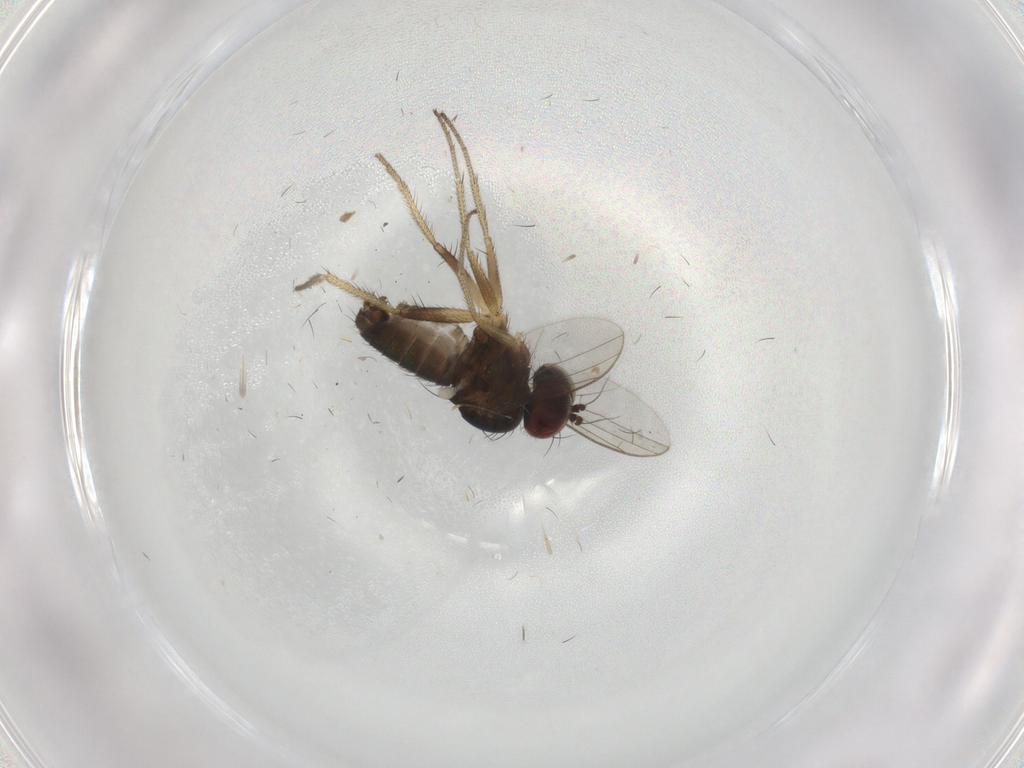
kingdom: Animalia
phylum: Arthropoda
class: Insecta
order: Diptera
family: Dolichopodidae
